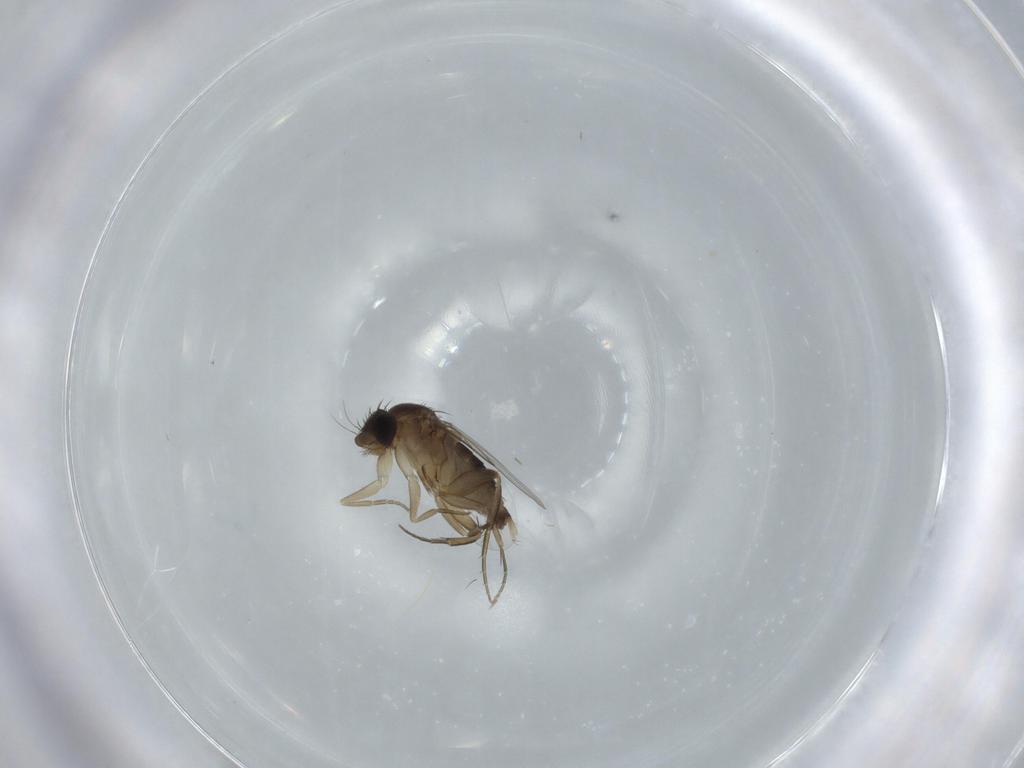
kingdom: Animalia
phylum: Arthropoda
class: Insecta
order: Diptera
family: Phoridae
